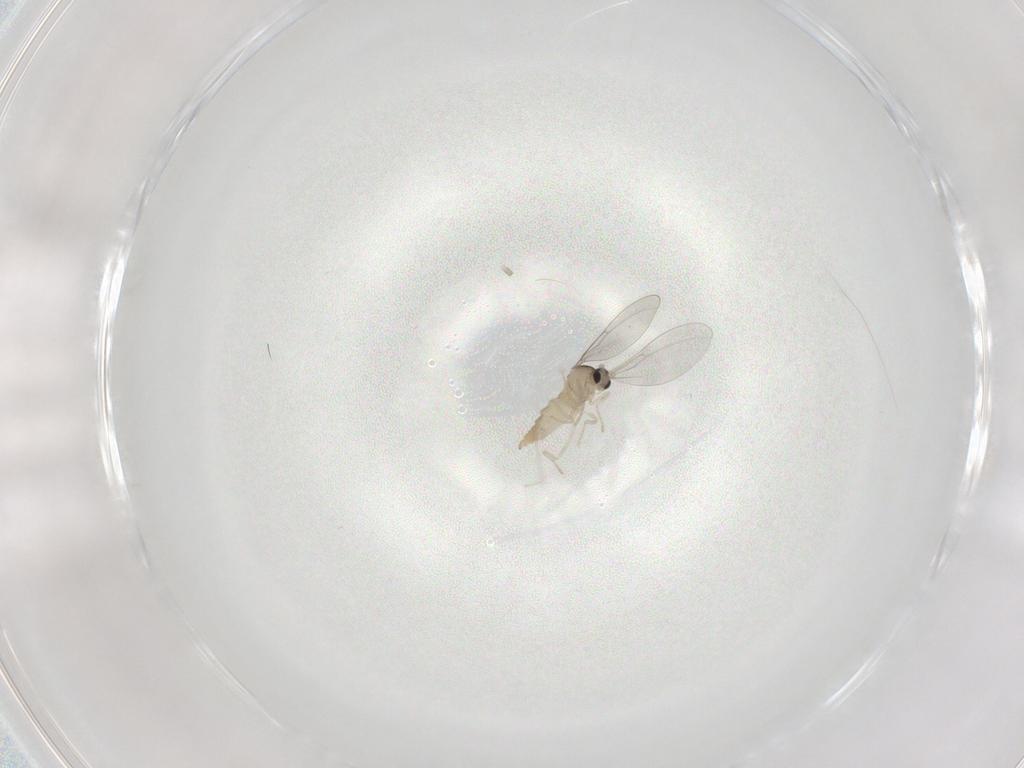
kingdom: Animalia
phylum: Arthropoda
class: Insecta
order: Diptera
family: Cecidomyiidae
